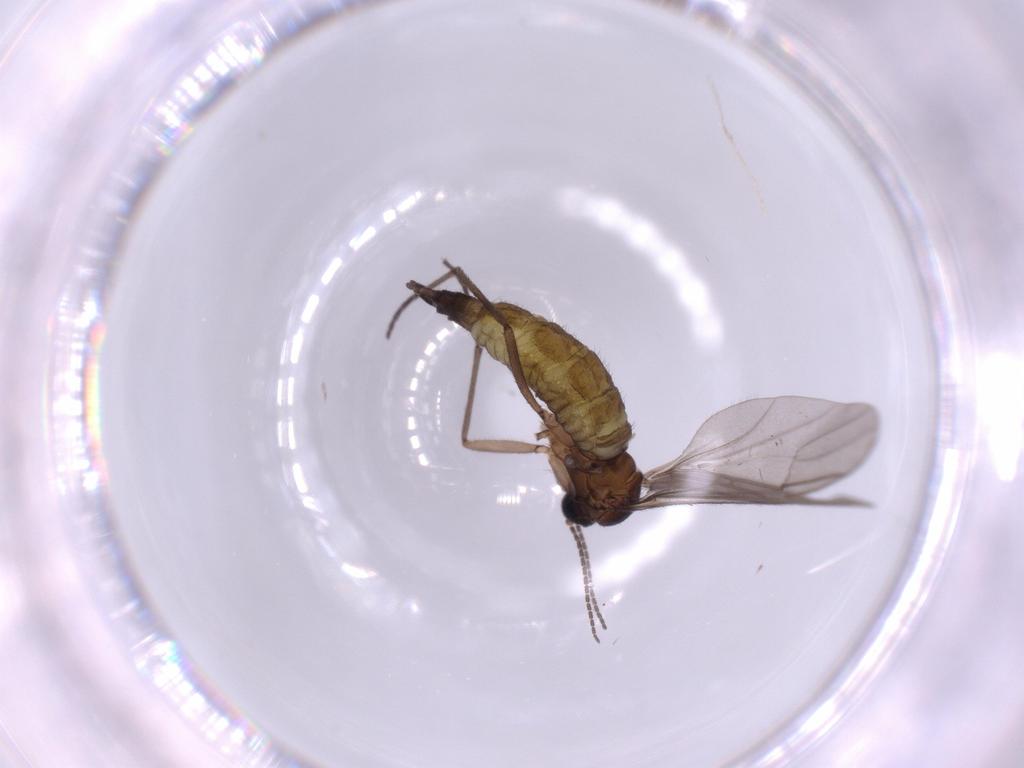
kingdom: Animalia
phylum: Arthropoda
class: Insecta
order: Diptera
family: Sciaridae
